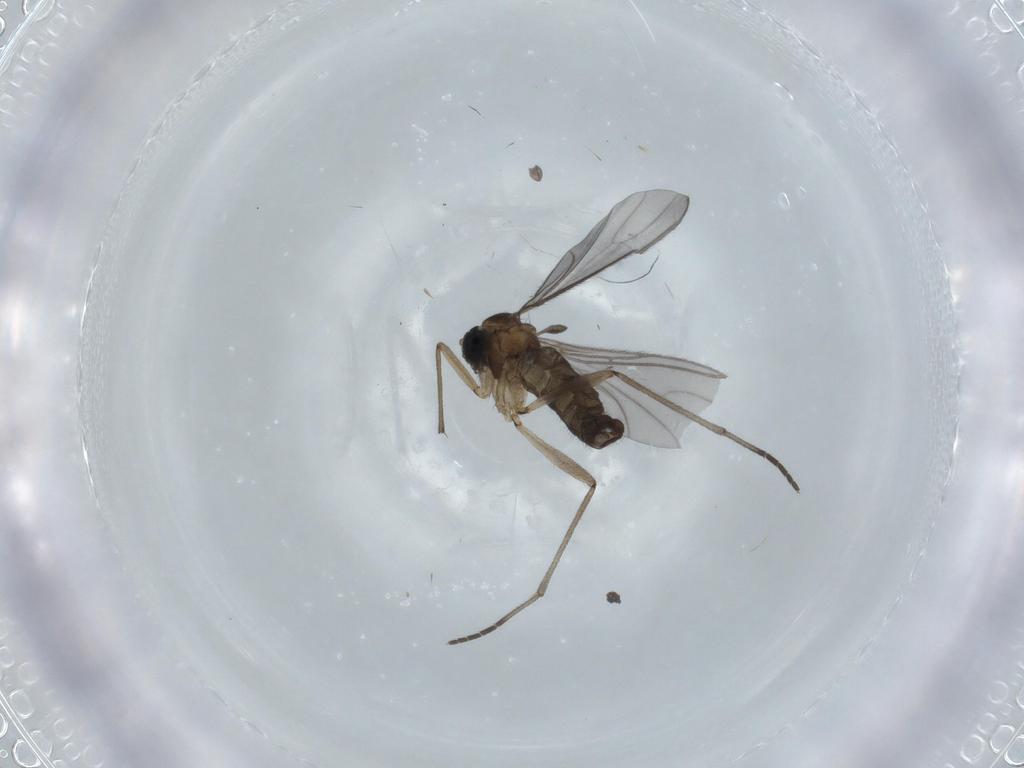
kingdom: Animalia
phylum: Arthropoda
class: Insecta
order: Diptera
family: Sciaridae
